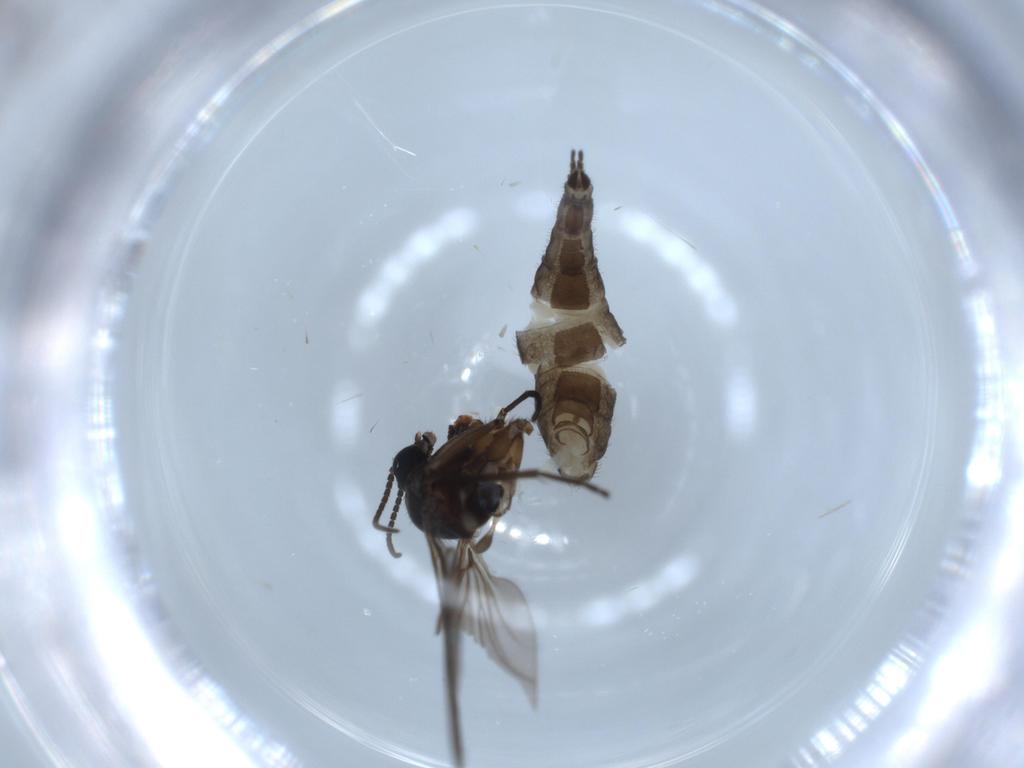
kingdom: Animalia
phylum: Arthropoda
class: Insecta
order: Diptera
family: Sciaridae
